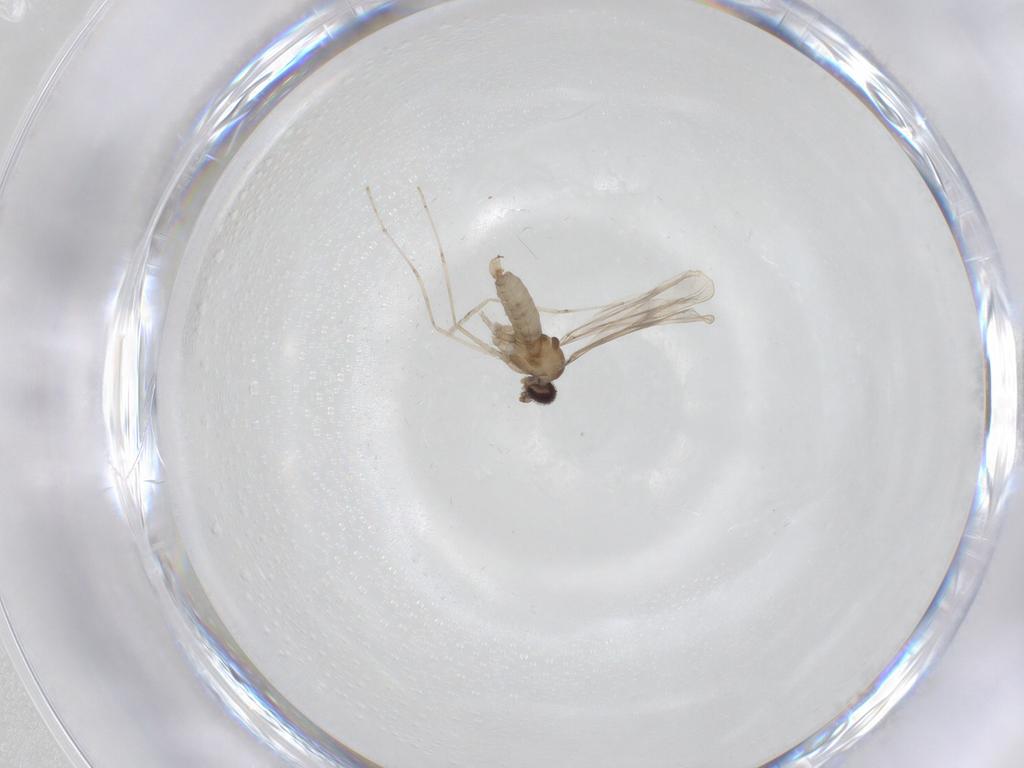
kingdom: Animalia
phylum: Arthropoda
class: Insecta
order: Diptera
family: Cecidomyiidae
